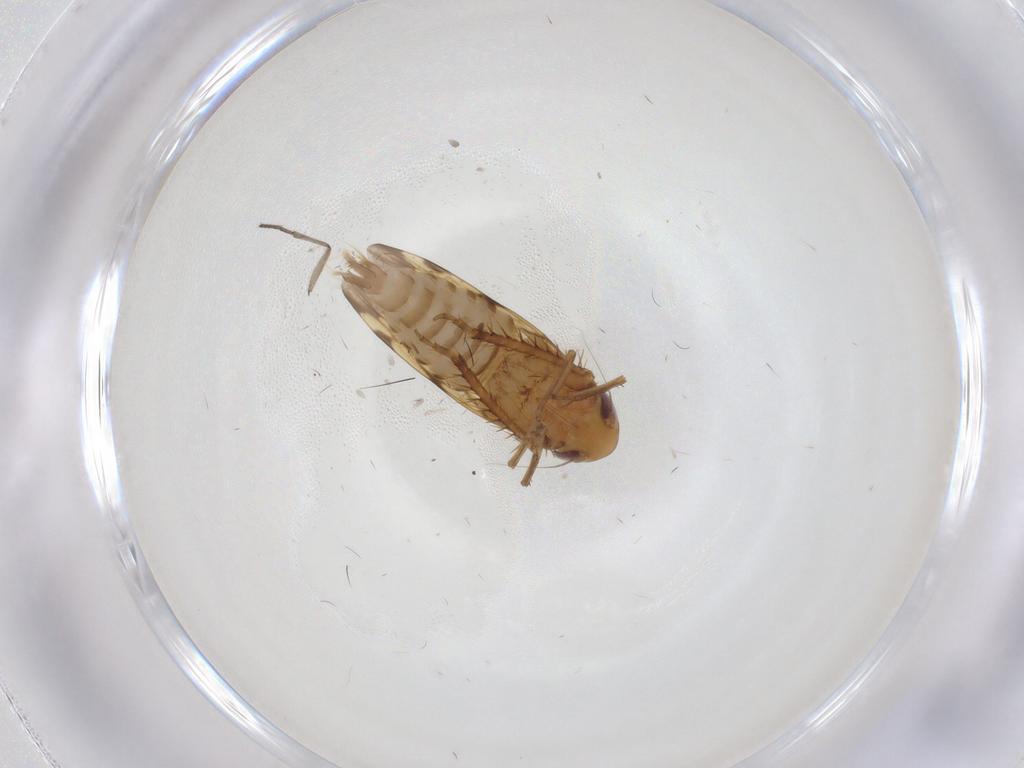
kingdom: Animalia
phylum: Arthropoda
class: Insecta
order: Hemiptera
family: Cicadellidae
